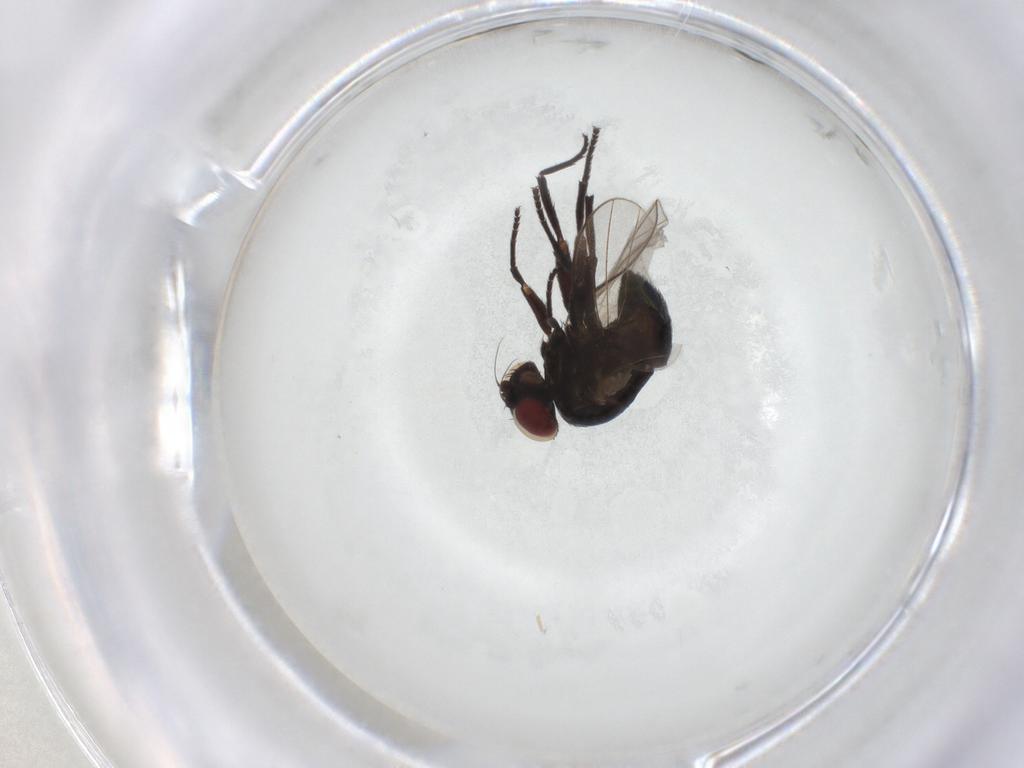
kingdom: Animalia
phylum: Arthropoda
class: Insecta
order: Diptera
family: Agromyzidae
